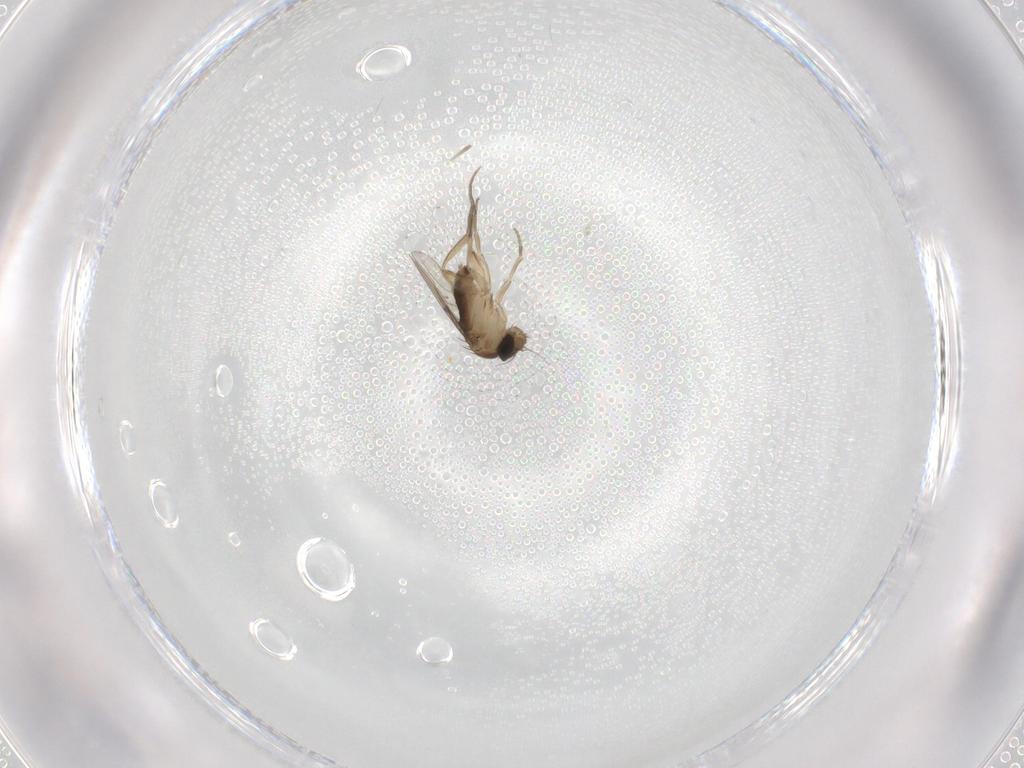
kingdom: Animalia
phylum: Arthropoda
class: Insecta
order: Diptera
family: Phoridae
